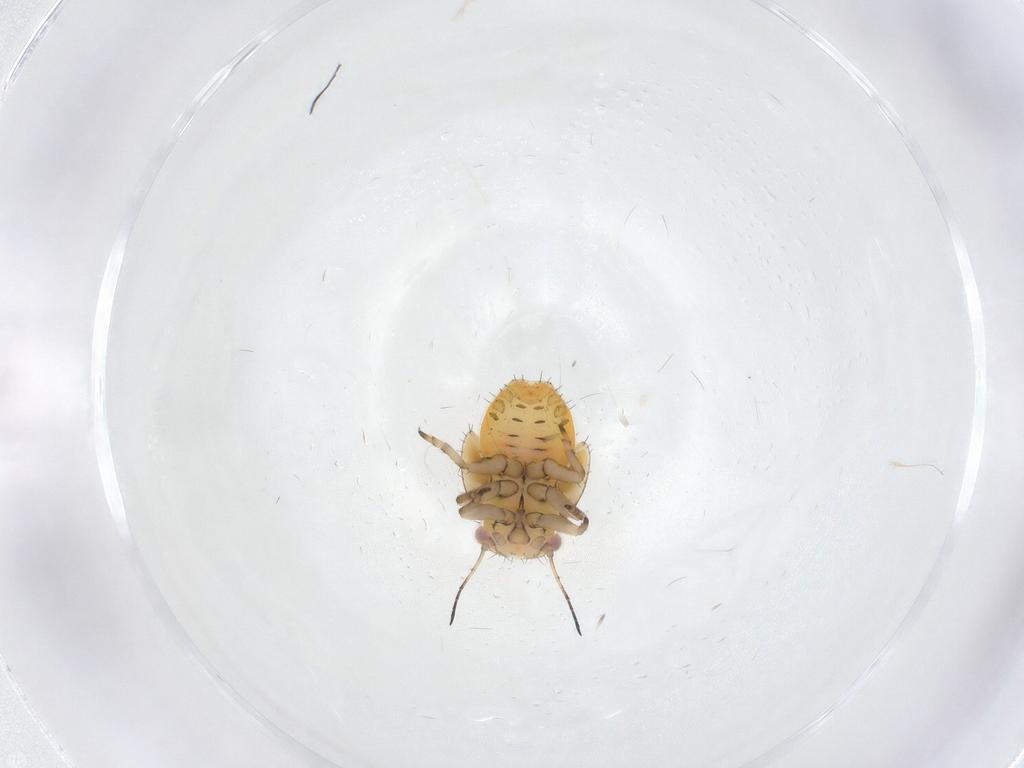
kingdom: Animalia
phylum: Arthropoda
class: Insecta
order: Hemiptera
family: Psyllidae
